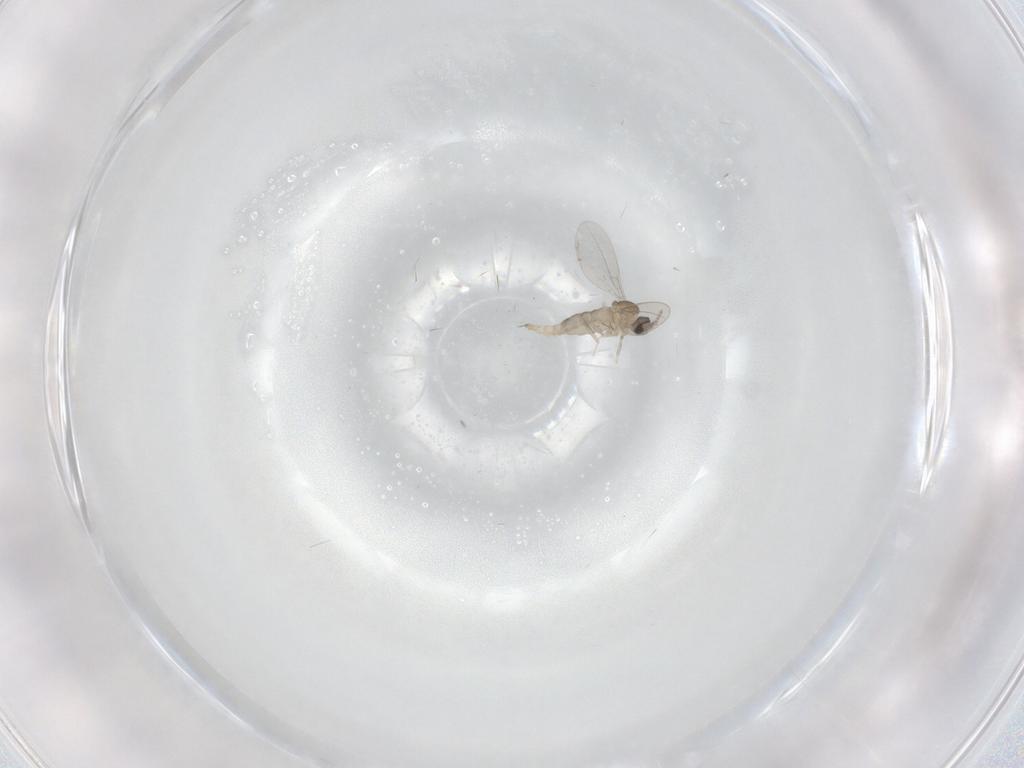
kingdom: Animalia
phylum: Arthropoda
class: Insecta
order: Diptera
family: Cecidomyiidae
